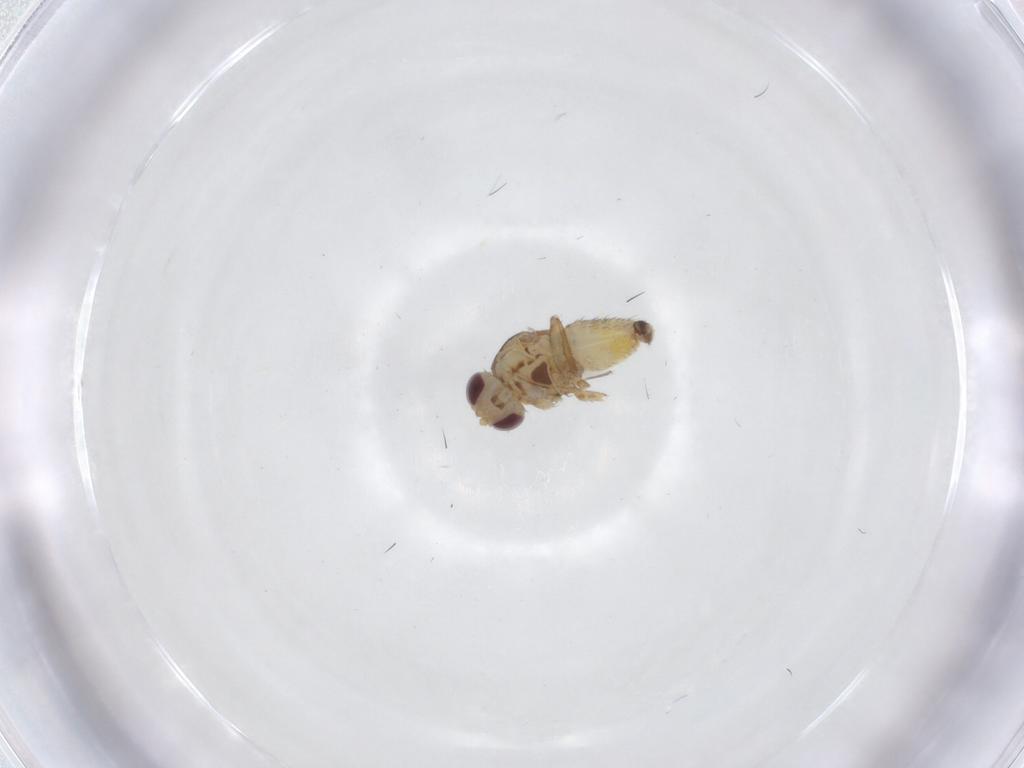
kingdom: Animalia
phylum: Arthropoda
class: Insecta
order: Diptera
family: Agromyzidae
